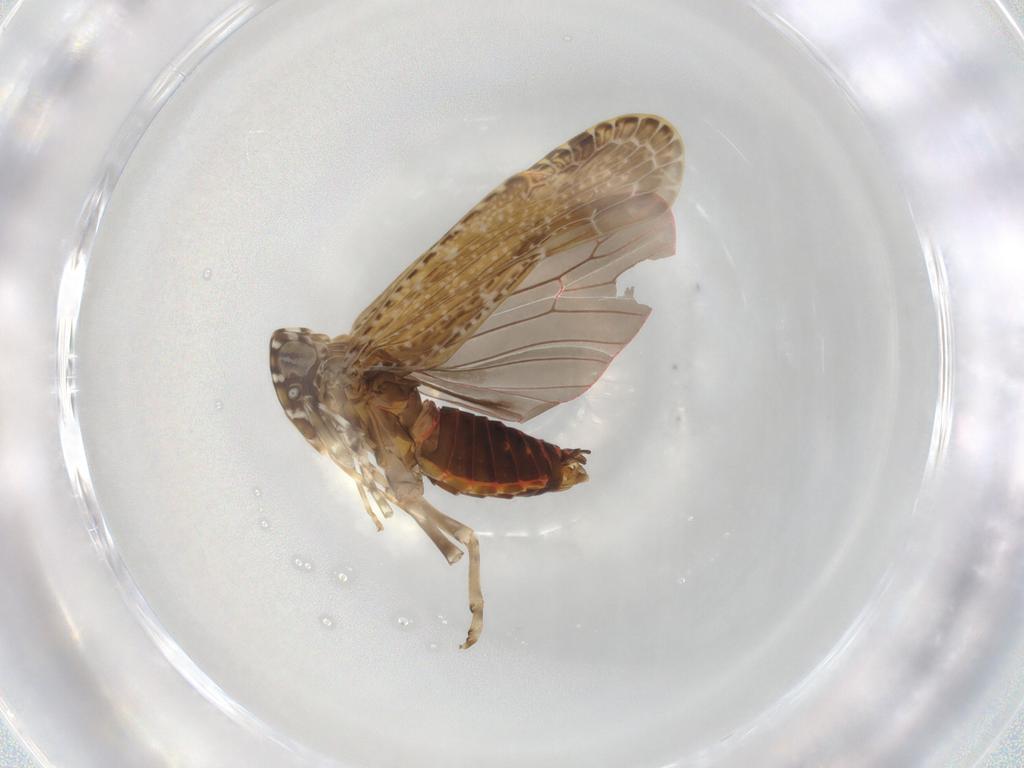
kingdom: Animalia
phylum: Arthropoda
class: Insecta
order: Hemiptera
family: Achilidae
